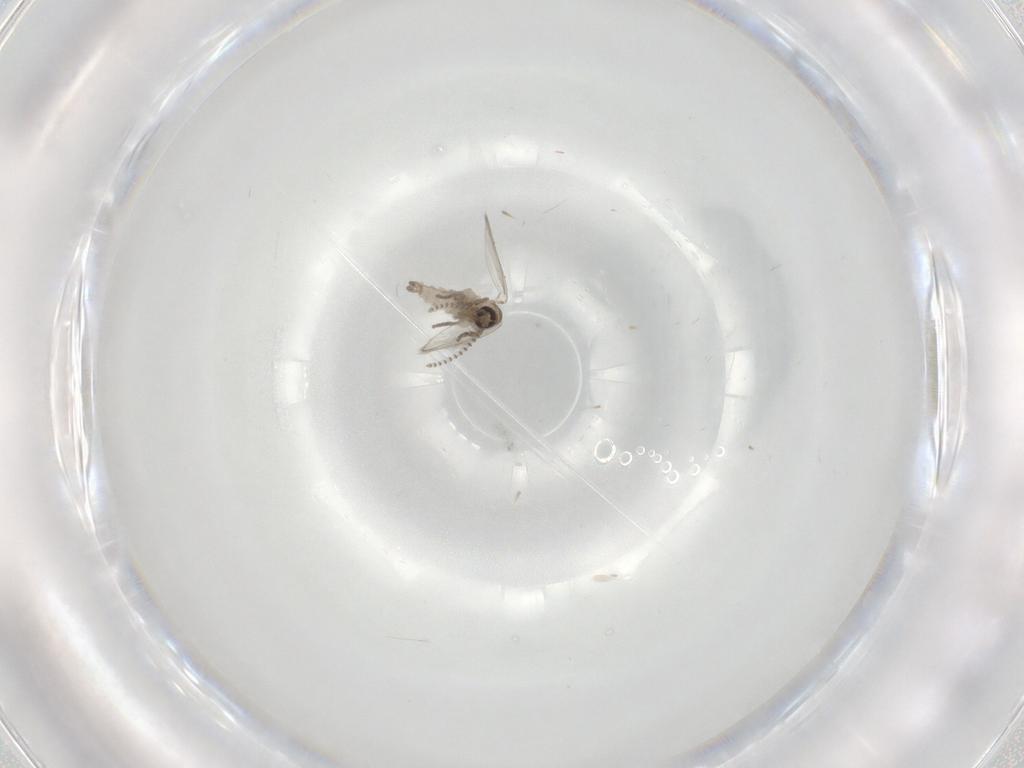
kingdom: Animalia
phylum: Arthropoda
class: Insecta
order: Diptera
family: Psychodidae
